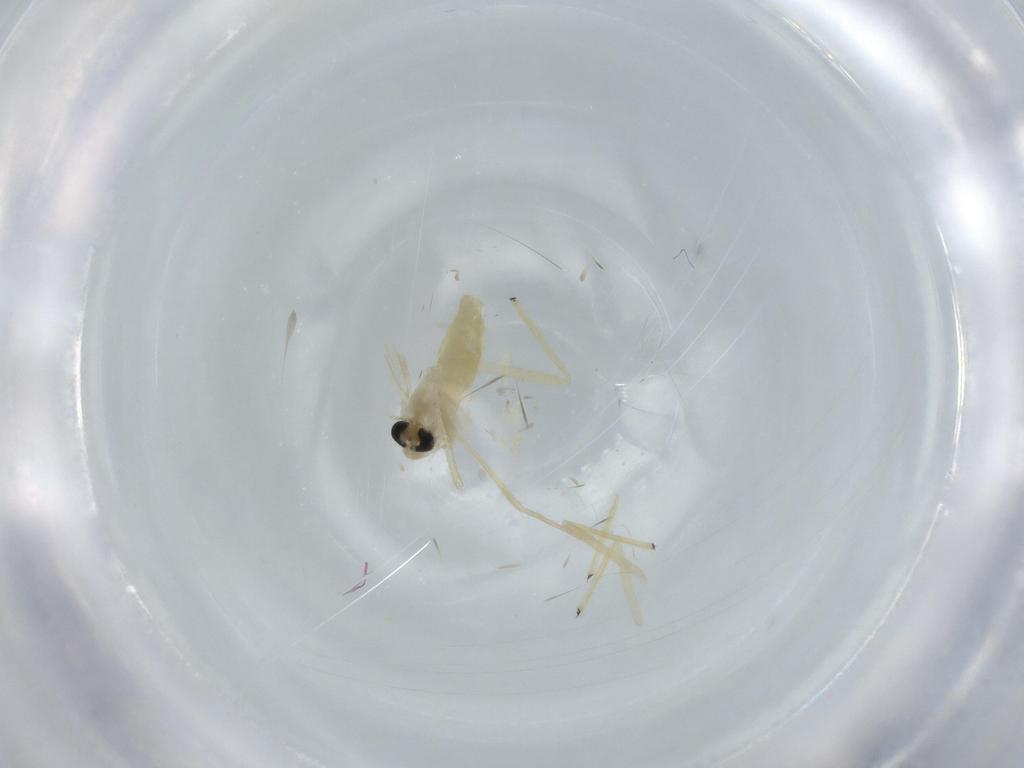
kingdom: Animalia
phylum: Arthropoda
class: Insecta
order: Diptera
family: Chironomidae
